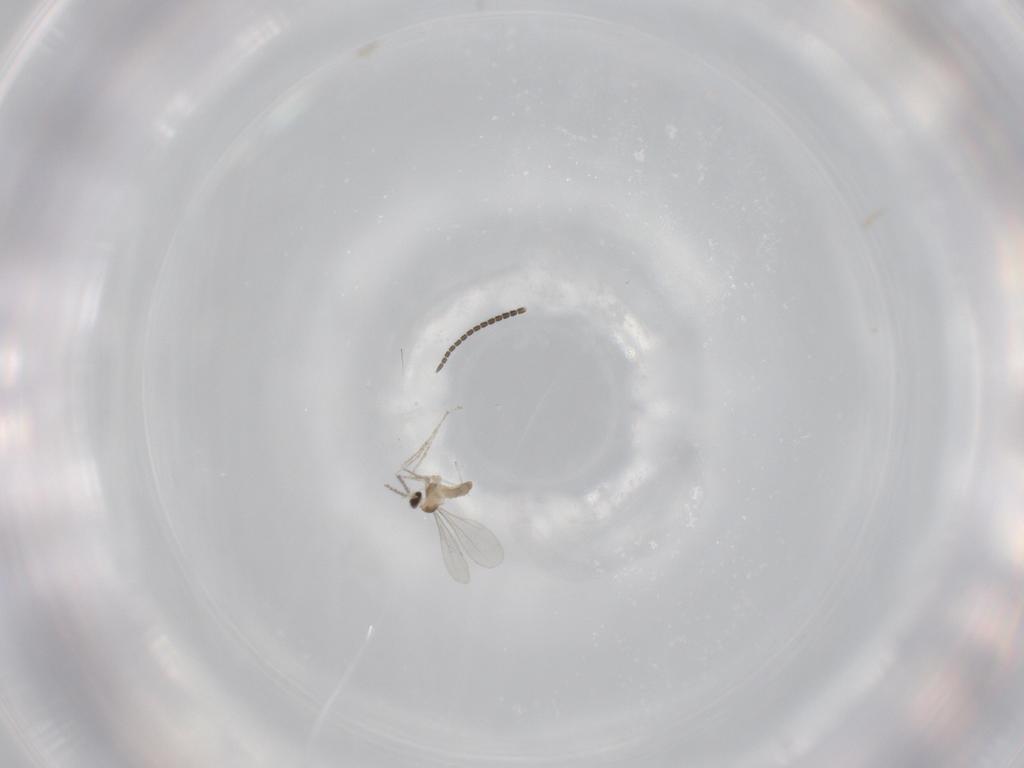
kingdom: Animalia
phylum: Arthropoda
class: Insecta
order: Diptera
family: Cecidomyiidae
